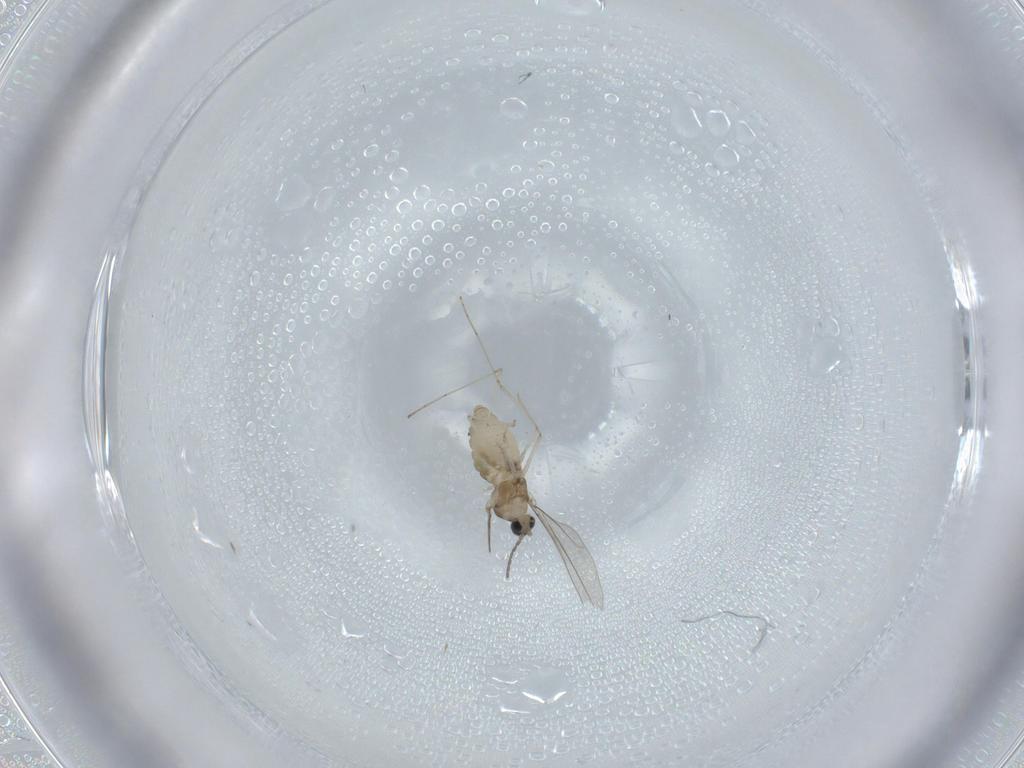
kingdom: Animalia
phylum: Arthropoda
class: Insecta
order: Diptera
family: Cecidomyiidae
